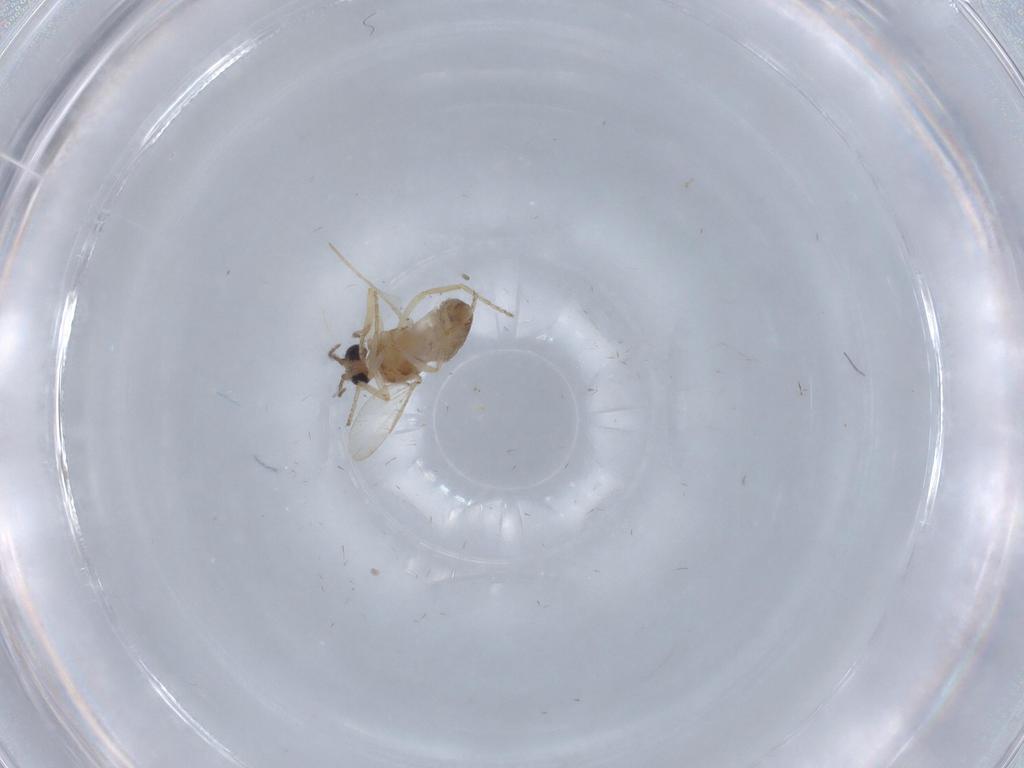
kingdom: Animalia
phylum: Arthropoda
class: Insecta
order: Diptera
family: Ceratopogonidae
